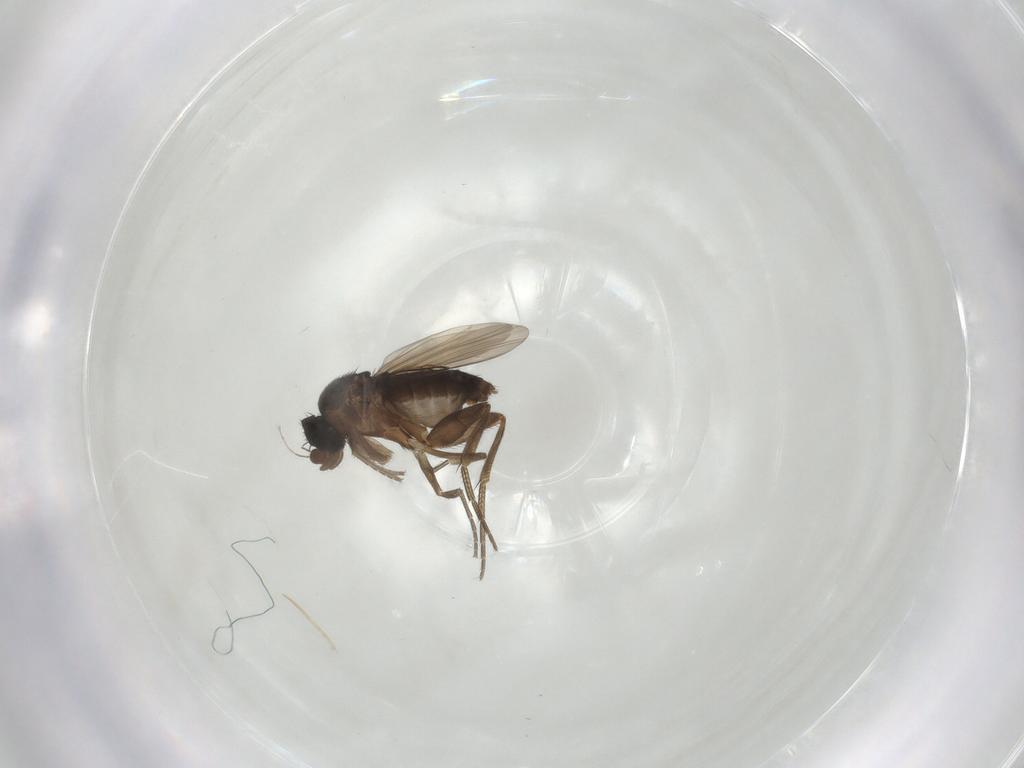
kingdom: Animalia
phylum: Arthropoda
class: Insecta
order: Diptera
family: Phoridae
